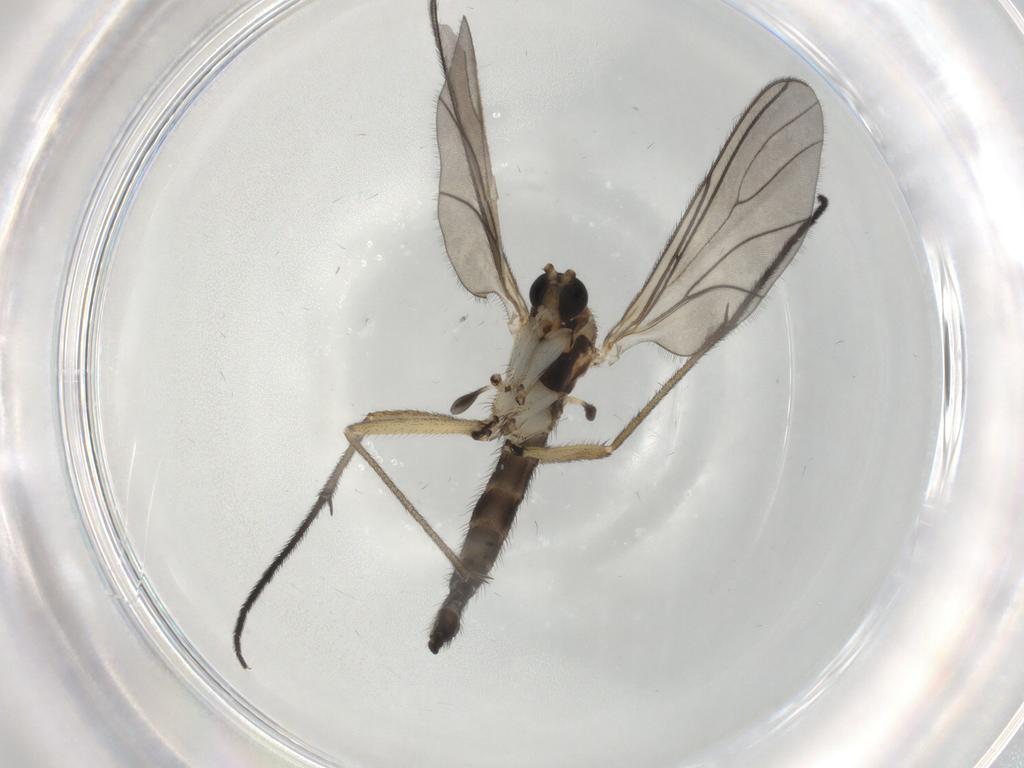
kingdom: Animalia
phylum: Arthropoda
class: Insecta
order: Diptera
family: Sciaridae
